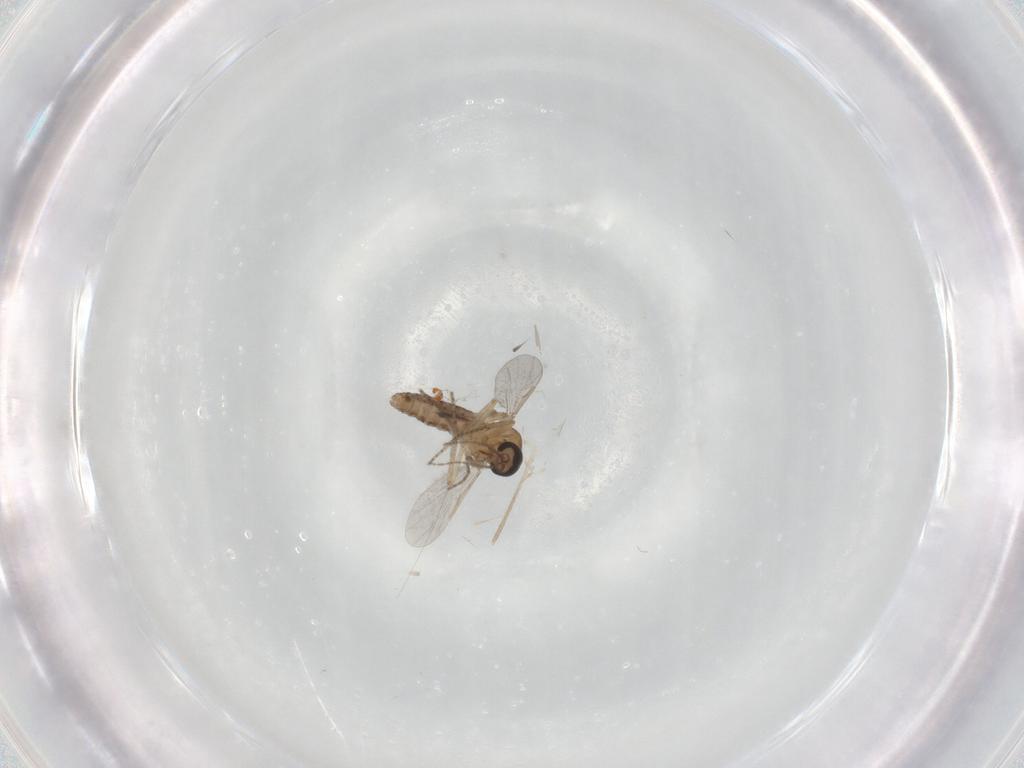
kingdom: Animalia
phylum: Arthropoda
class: Insecta
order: Diptera
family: Ceratopogonidae
